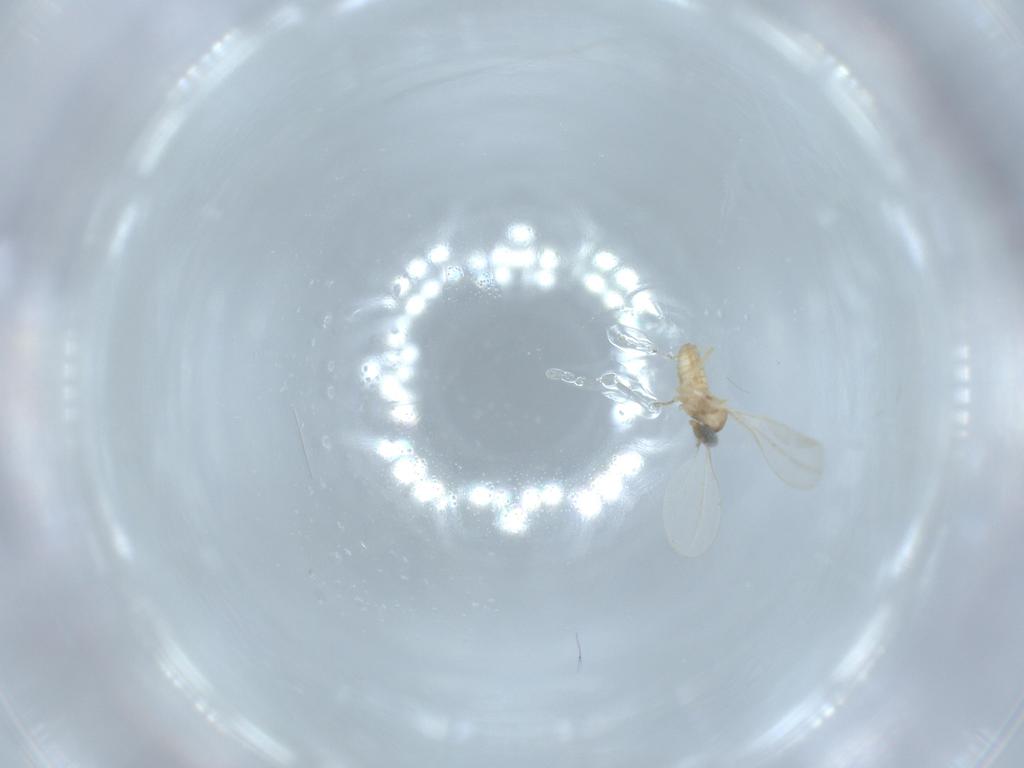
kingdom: Animalia
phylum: Arthropoda
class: Insecta
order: Diptera
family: Cecidomyiidae
